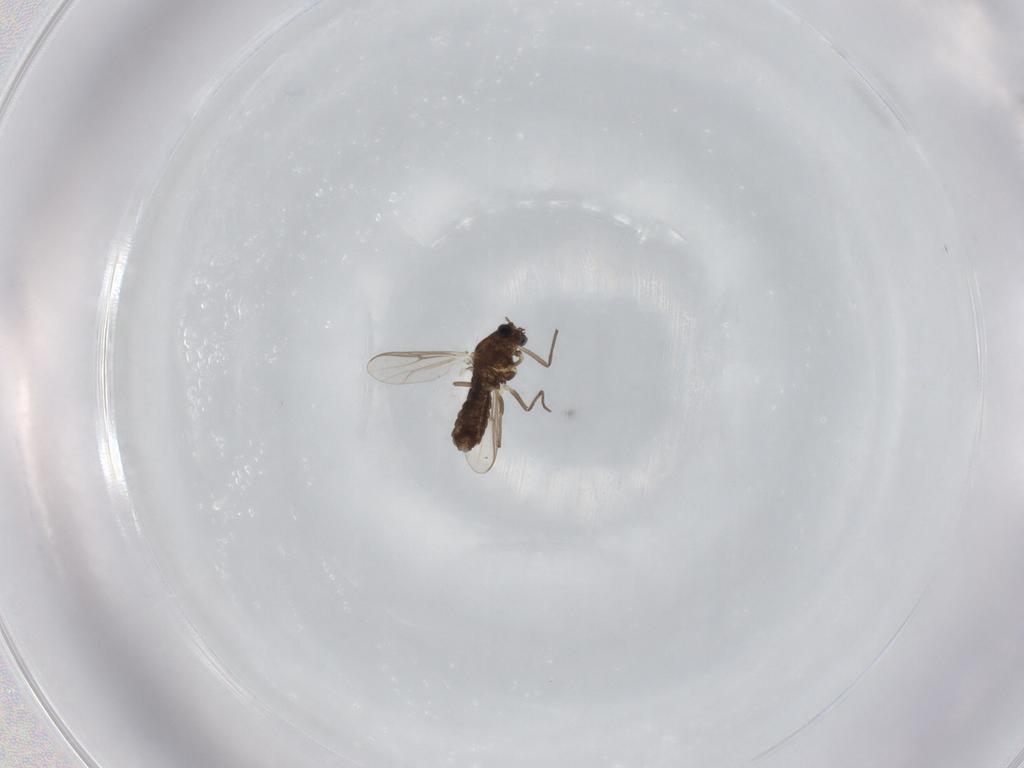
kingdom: Animalia
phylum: Arthropoda
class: Insecta
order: Diptera
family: Chironomidae
